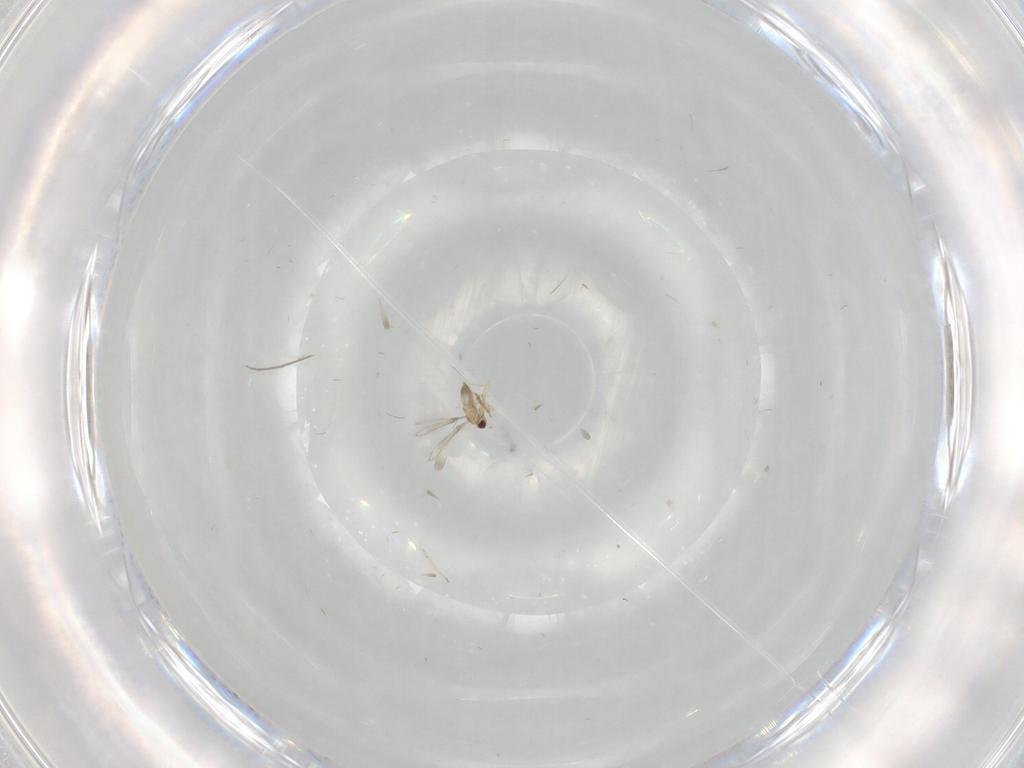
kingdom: Animalia
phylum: Arthropoda
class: Insecta
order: Diptera
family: Chironomidae
